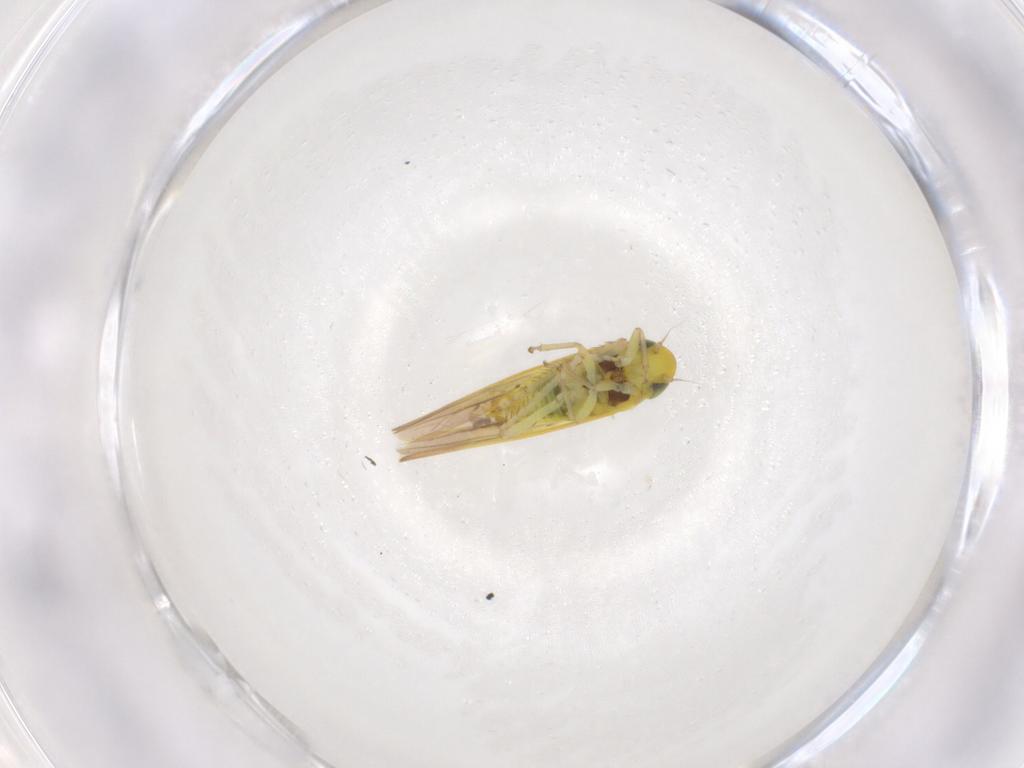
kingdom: Animalia
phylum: Arthropoda
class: Insecta
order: Hemiptera
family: Cicadellidae
